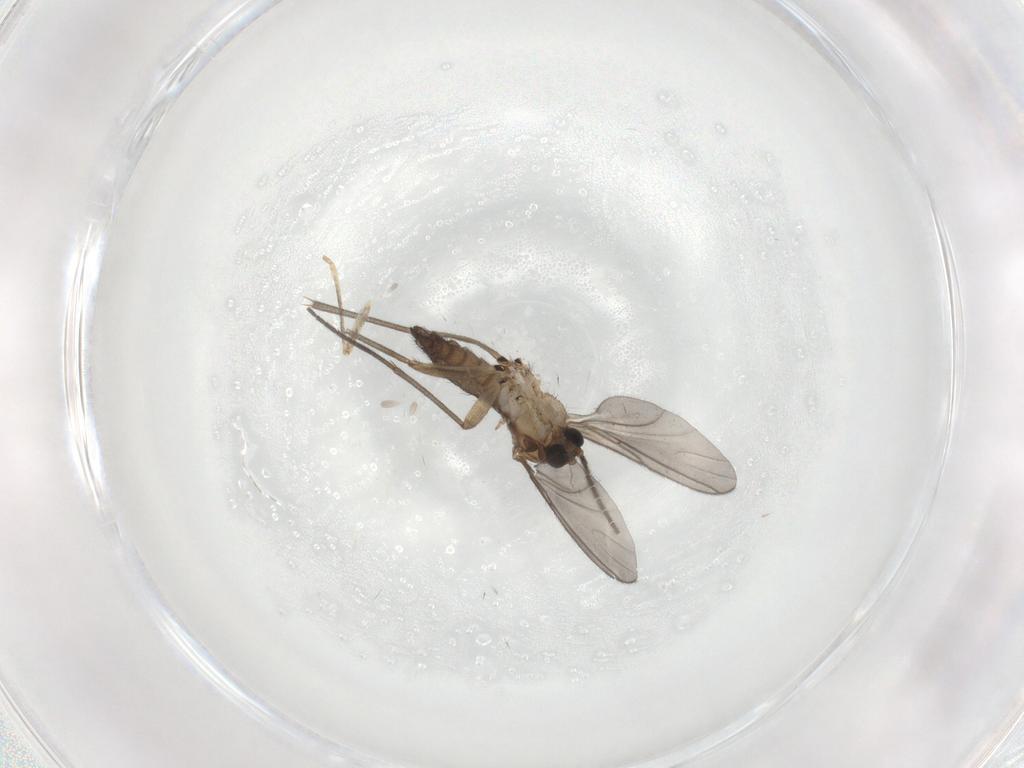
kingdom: Animalia
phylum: Arthropoda
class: Insecta
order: Diptera
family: Sciaridae
